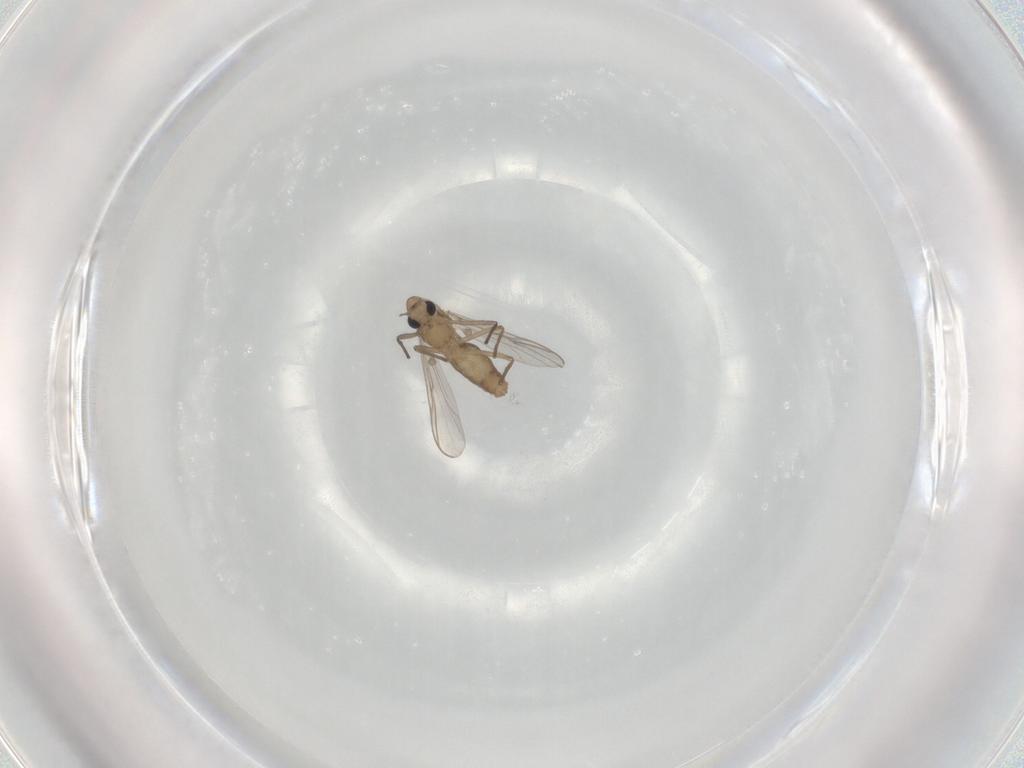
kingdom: Animalia
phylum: Arthropoda
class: Insecta
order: Diptera
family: Chironomidae
